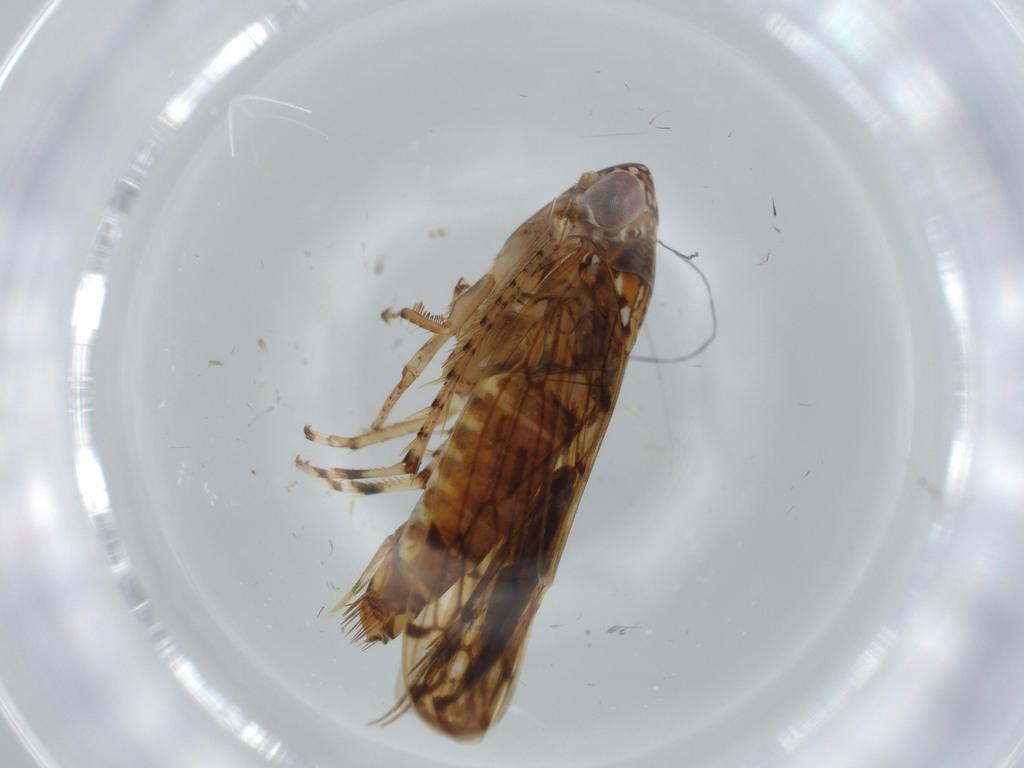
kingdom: Animalia
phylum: Arthropoda
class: Insecta
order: Hemiptera
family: Cicadellidae
